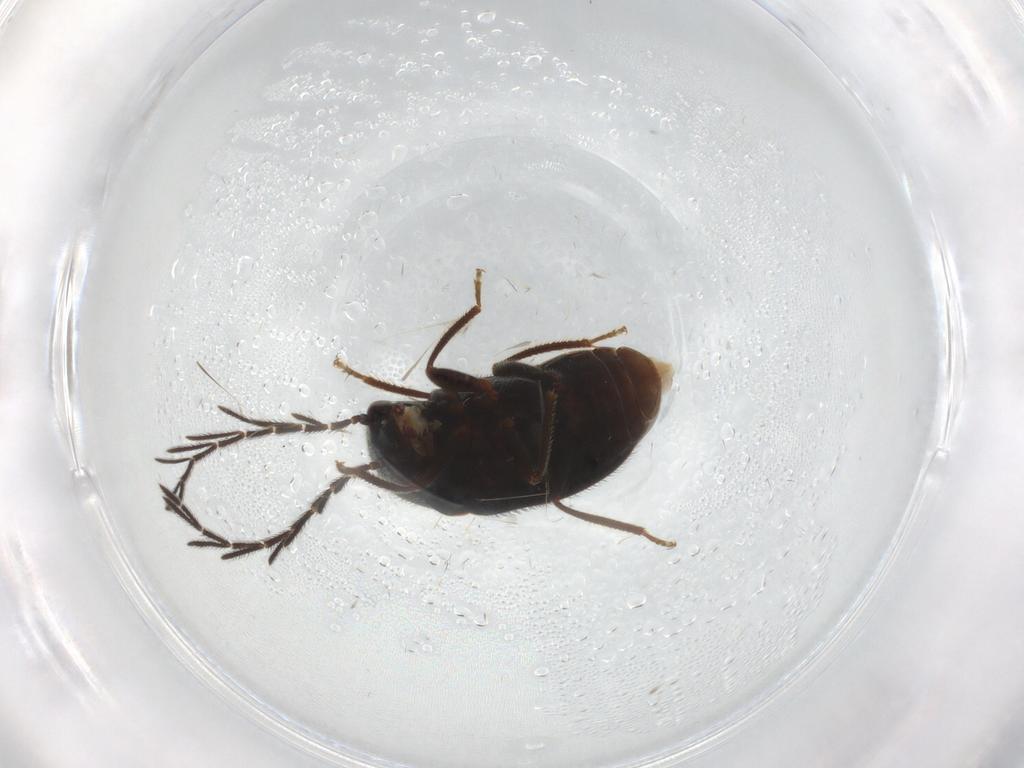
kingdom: Animalia
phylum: Arthropoda
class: Insecta
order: Coleoptera
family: Ptilodactylidae
